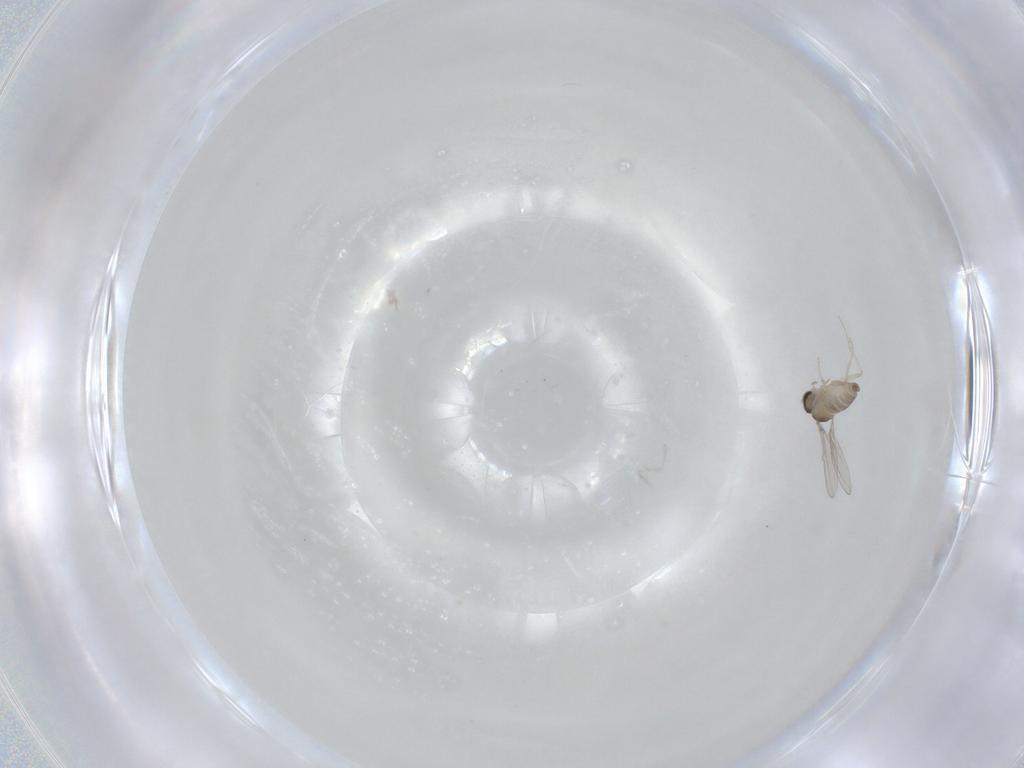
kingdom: Animalia
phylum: Arthropoda
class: Insecta
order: Diptera
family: Cecidomyiidae
